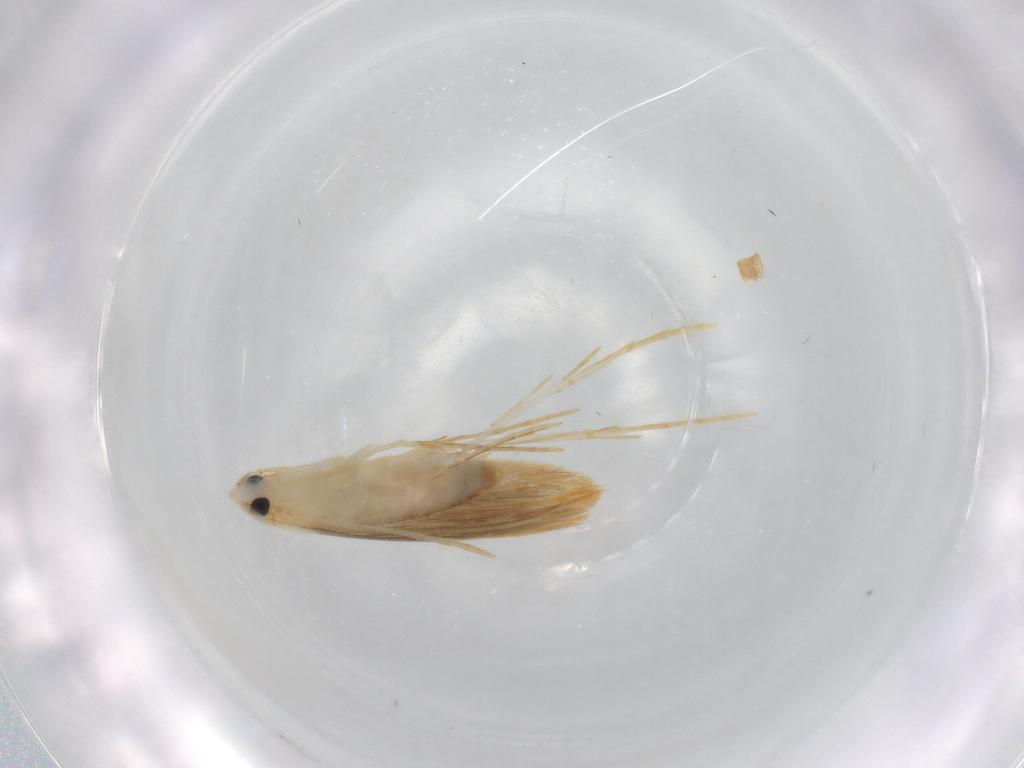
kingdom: Animalia
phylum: Arthropoda
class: Insecta
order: Lepidoptera
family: Tineidae
